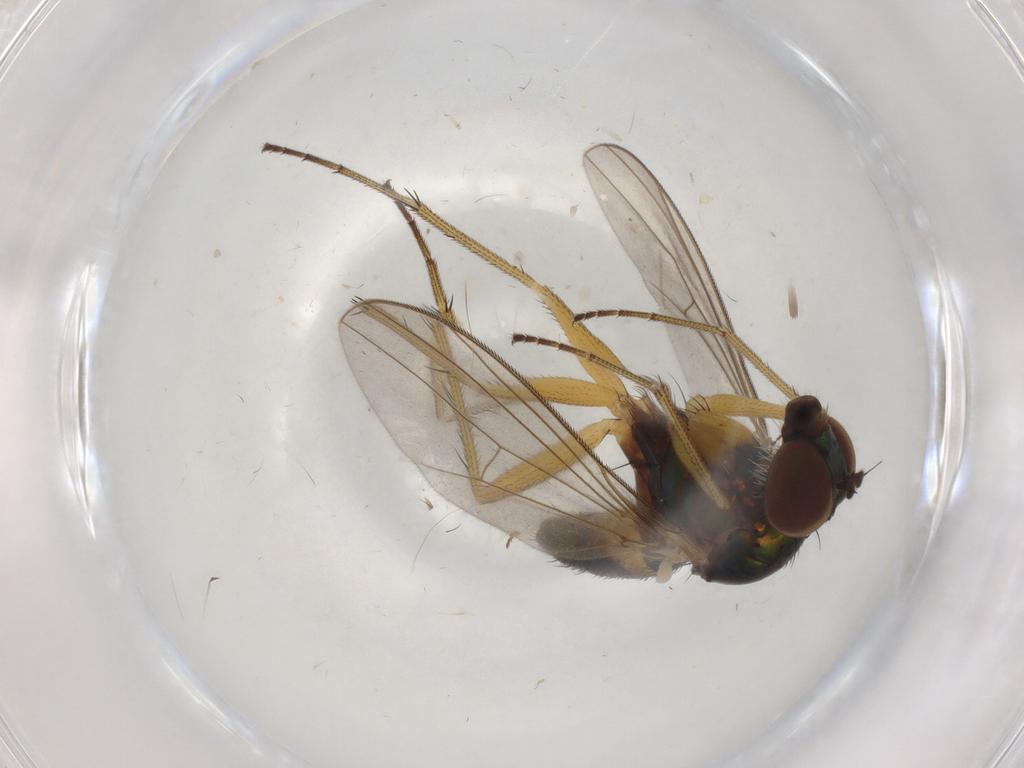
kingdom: Animalia
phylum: Arthropoda
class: Insecta
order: Diptera
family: Dolichopodidae
